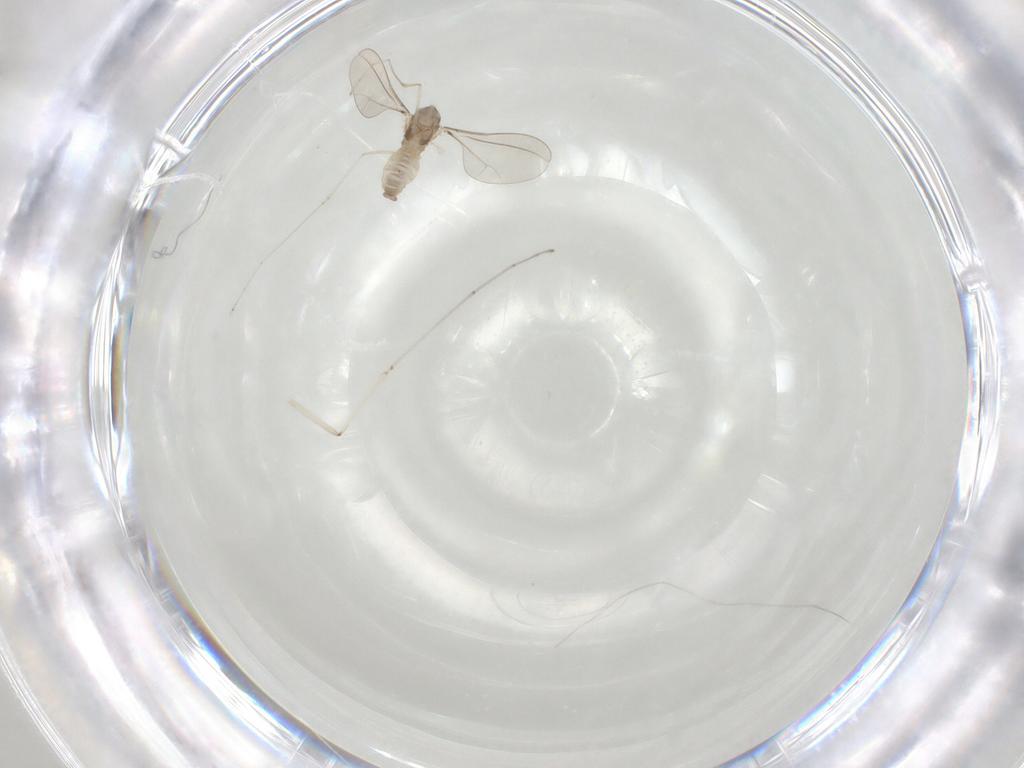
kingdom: Animalia
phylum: Arthropoda
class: Insecta
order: Diptera
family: Cecidomyiidae
